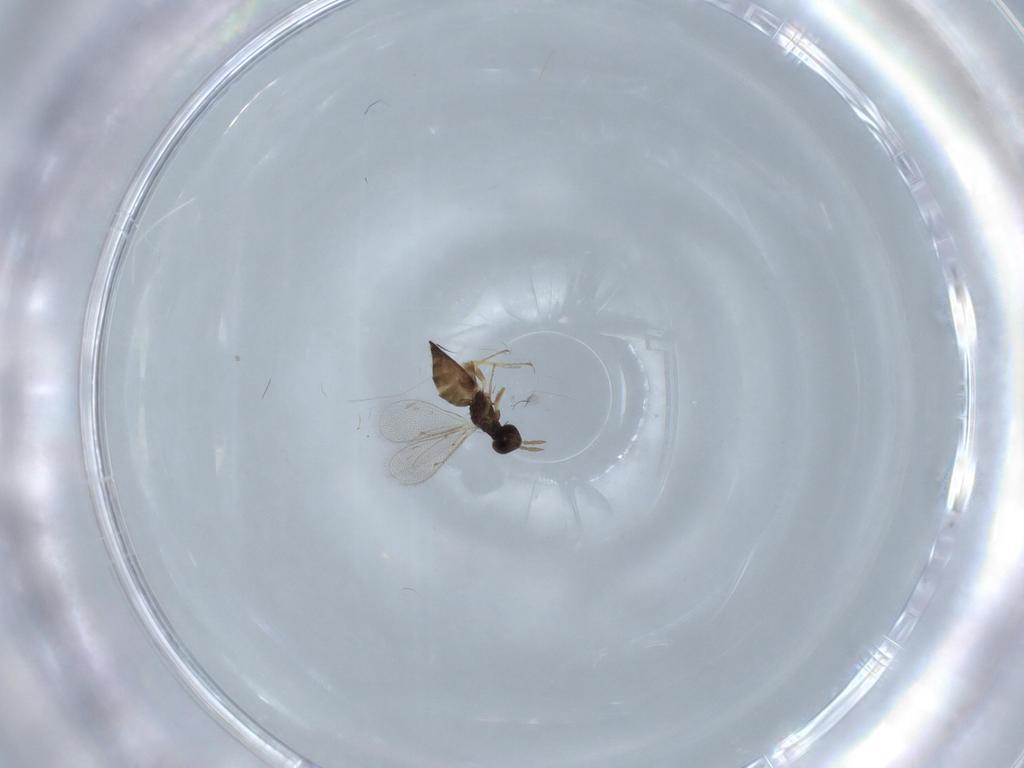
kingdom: Animalia
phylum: Arthropoda
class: Insecta
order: Hymenoptera
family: Eulophidae
